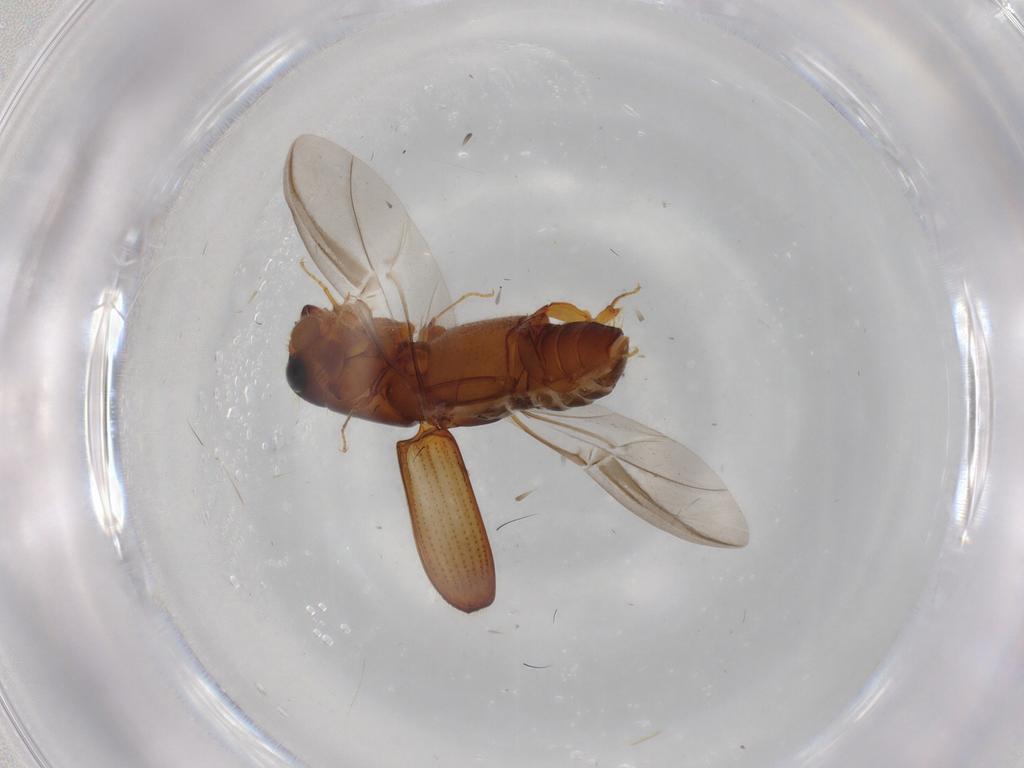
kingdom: Animalia
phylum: Arthropoda
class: Insecta
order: Coleoptera
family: Curculionidae
